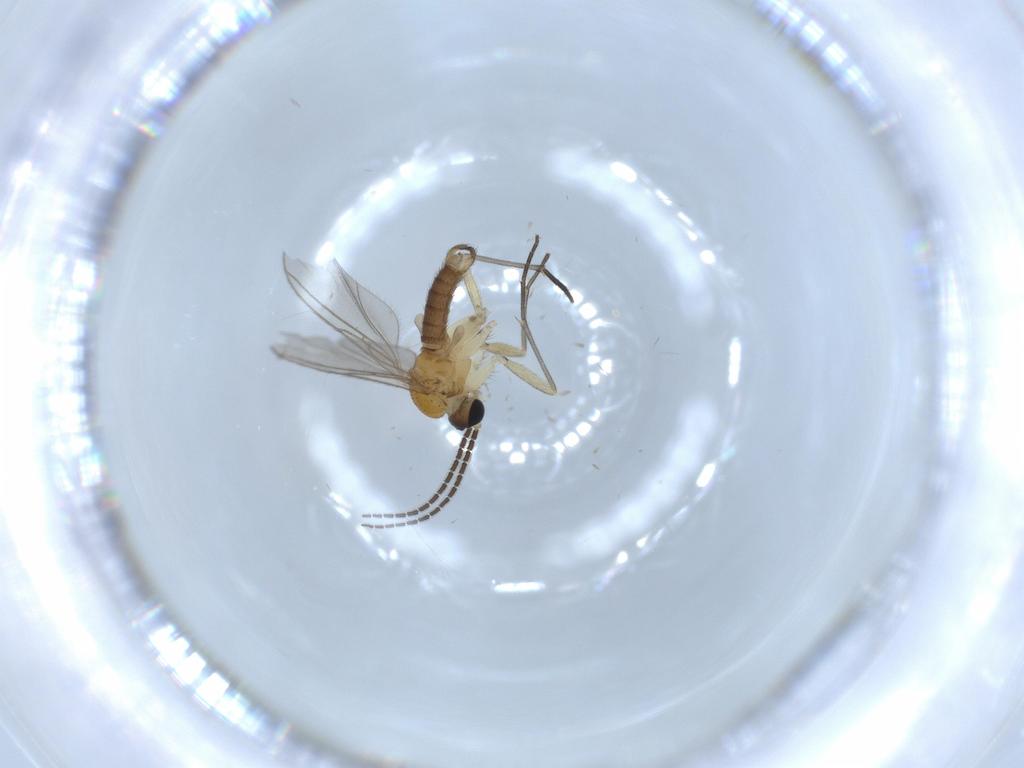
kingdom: Animalia
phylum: Arthropoda
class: Insecta
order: Diptera
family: Sciaridae
